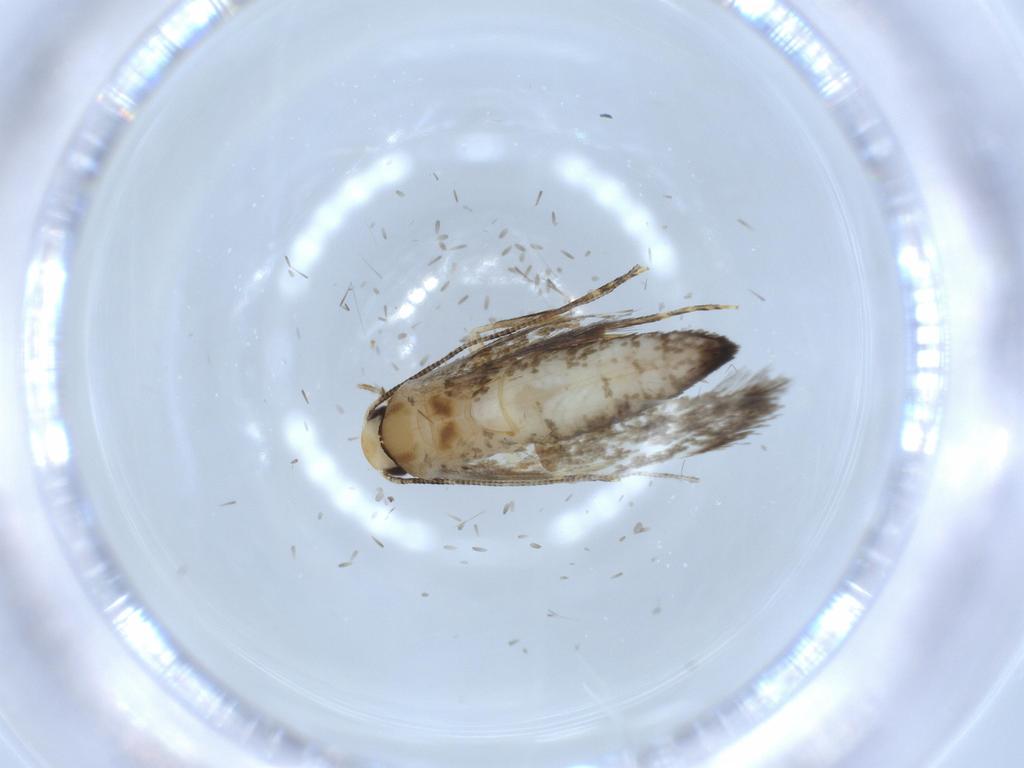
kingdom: Animalia
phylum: Arthropoda
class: Insecta
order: Lepidoptera
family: Tineidae
